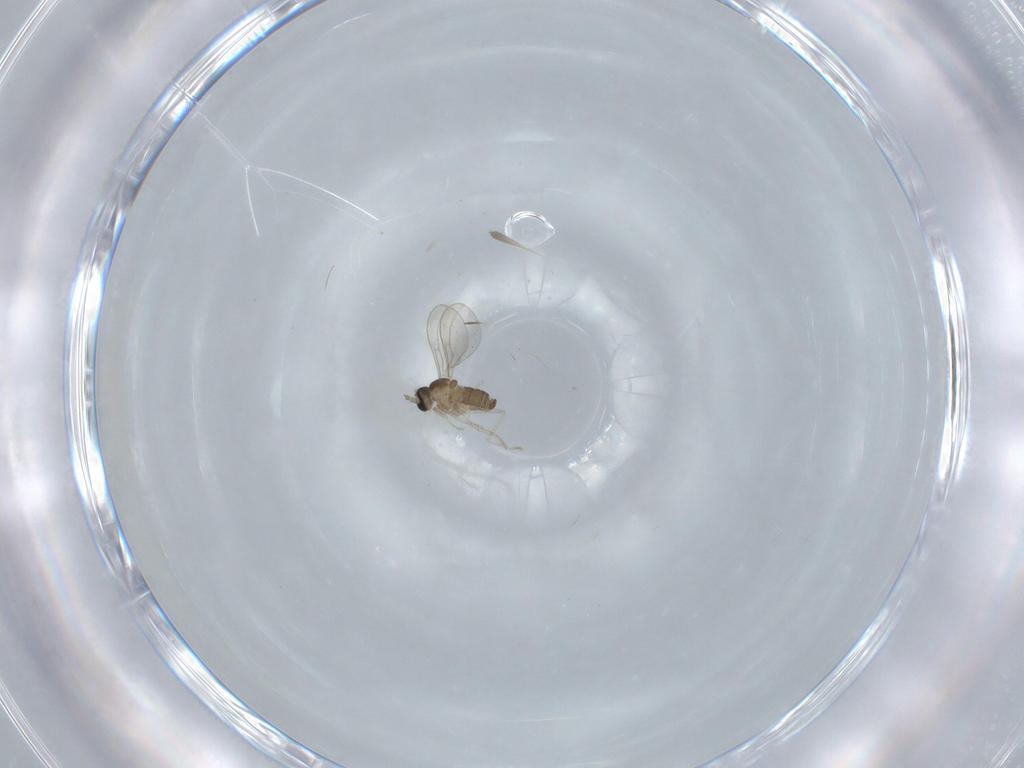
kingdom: Animalia
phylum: Arthropoda
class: Insecta
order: Diptera
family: Cecidomyiidae
